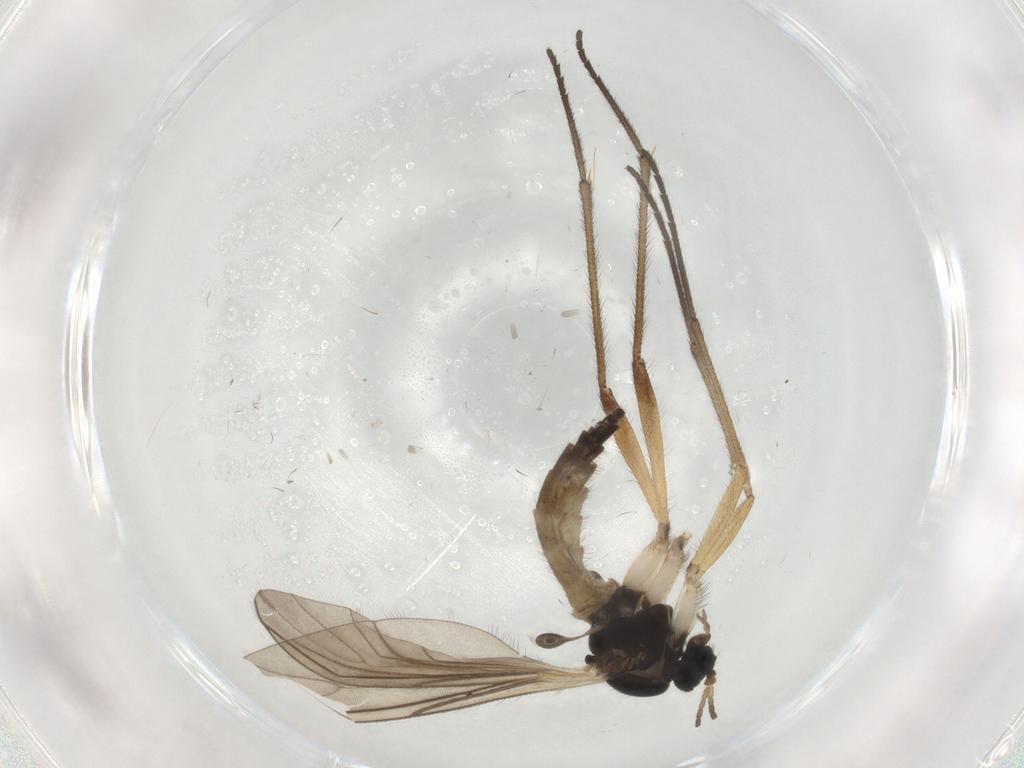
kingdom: Animalia
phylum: Arthropoda
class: Insecta
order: Diptera
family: Sciaridae
